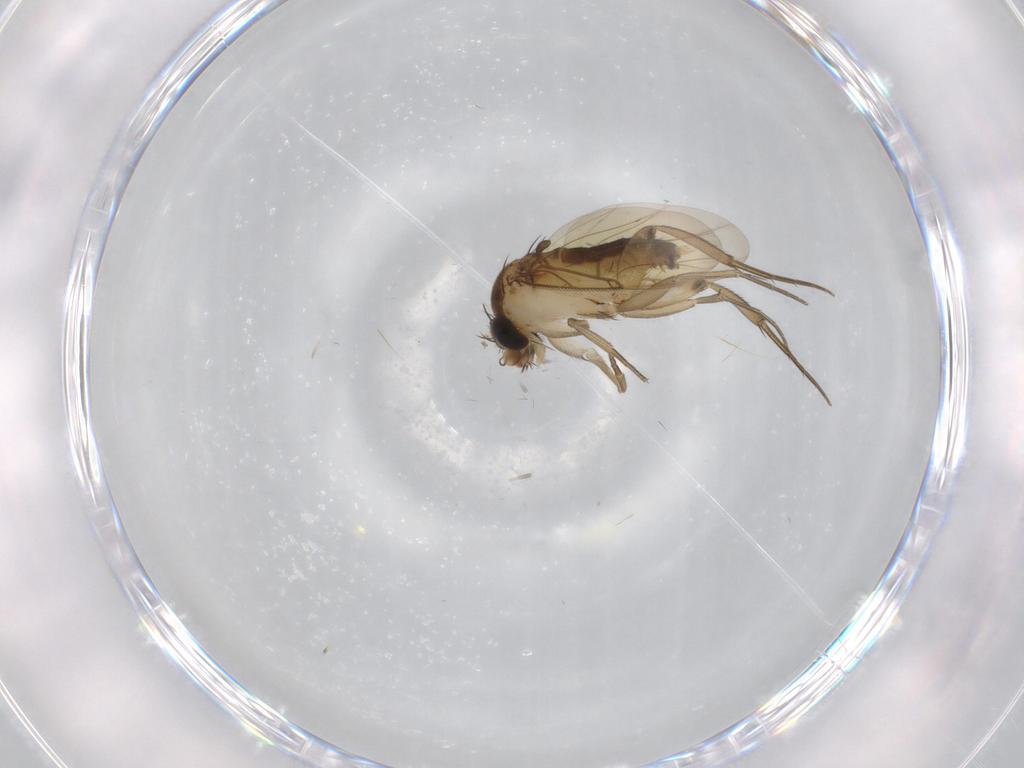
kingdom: Animalia
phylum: Arthropoda
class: Insecta
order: Diptera
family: Phoridae
